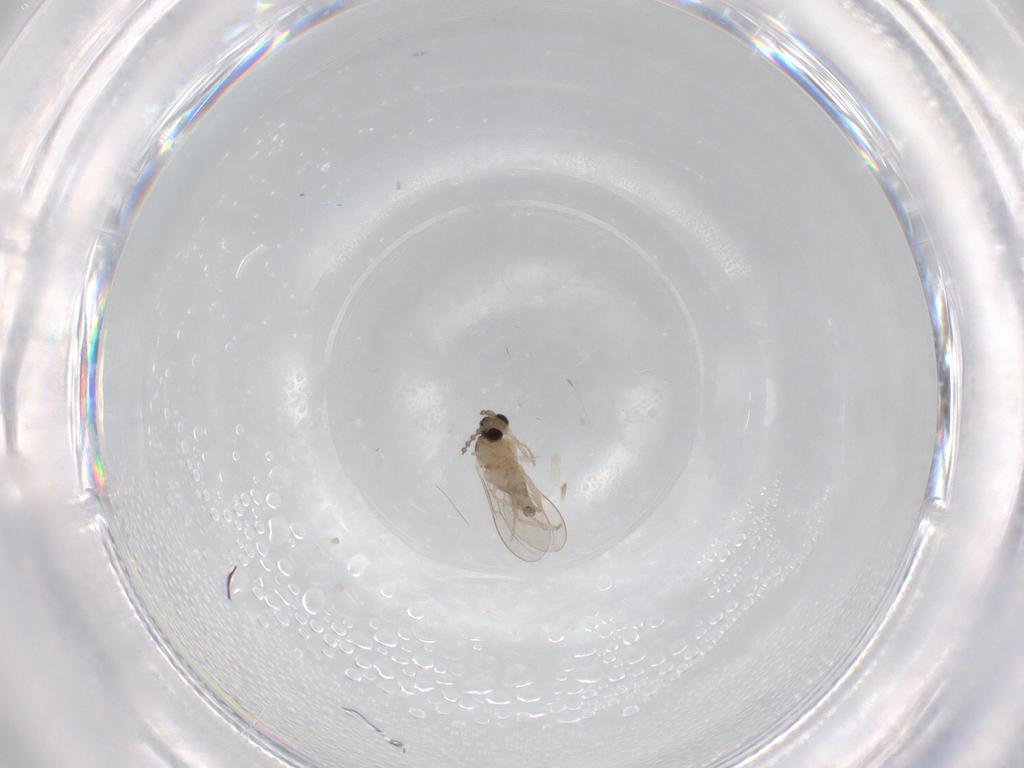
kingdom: Animalia
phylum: Arthropoda
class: Insecta
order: Diptera
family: Cecidomyiidae
